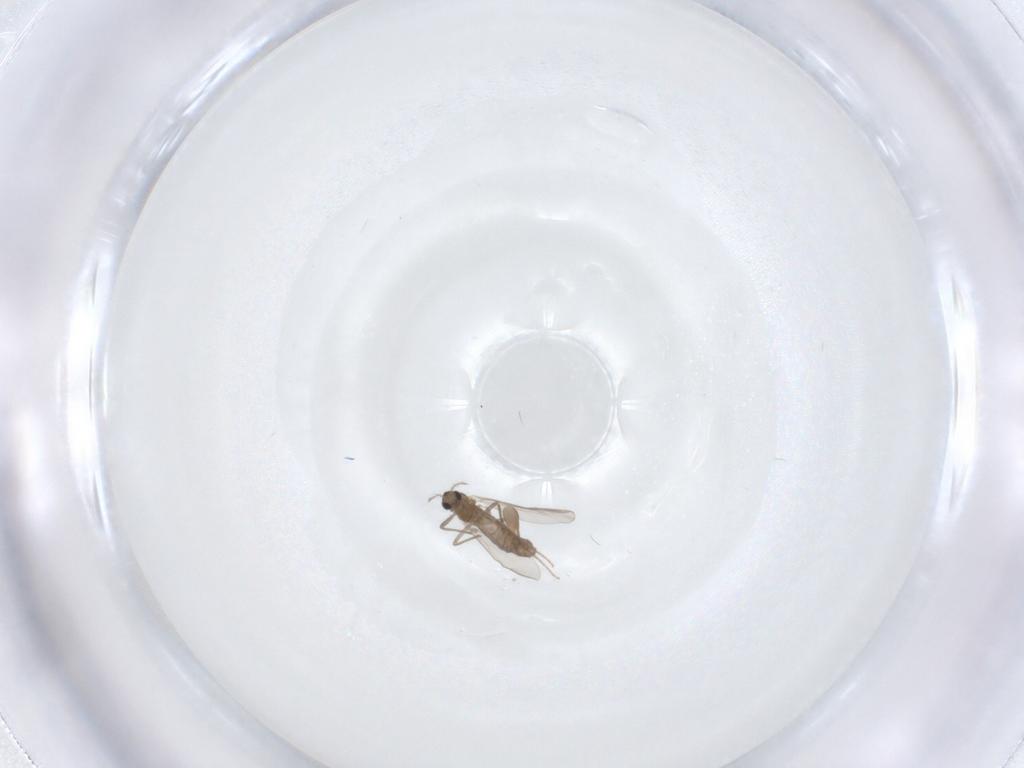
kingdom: Animalia
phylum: Arthropoda
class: Insecta
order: Diptera
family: Chironomidae
